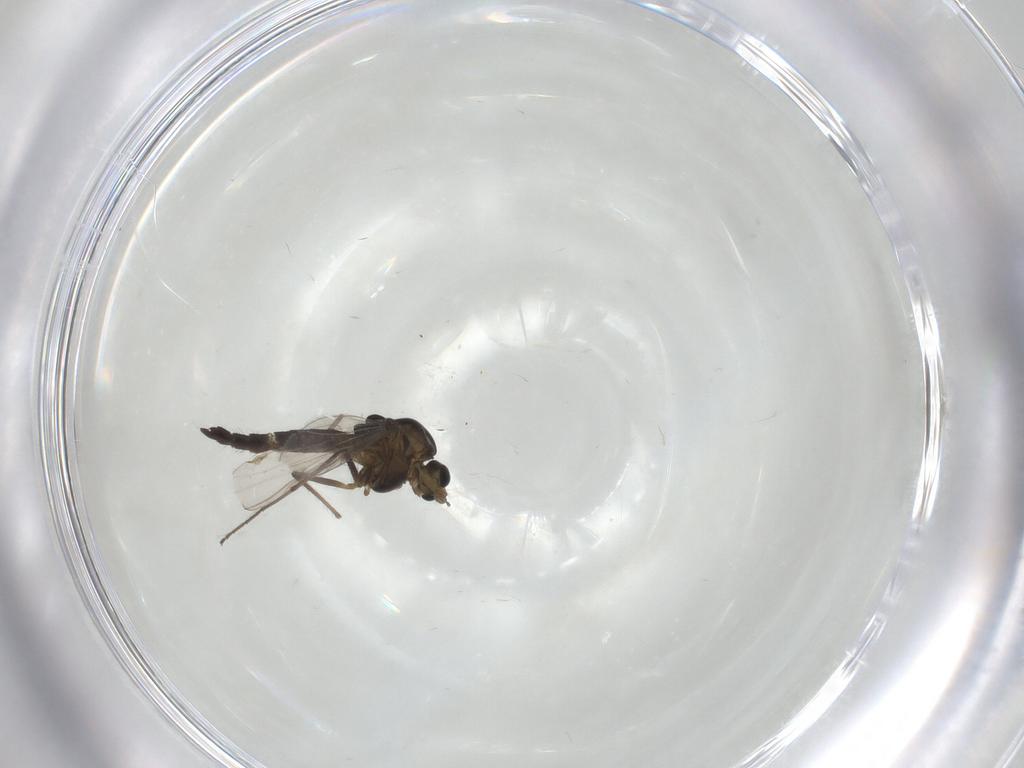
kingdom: Animalia
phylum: Arthropoda
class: Insecta
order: Diptera
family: Chironomidae
